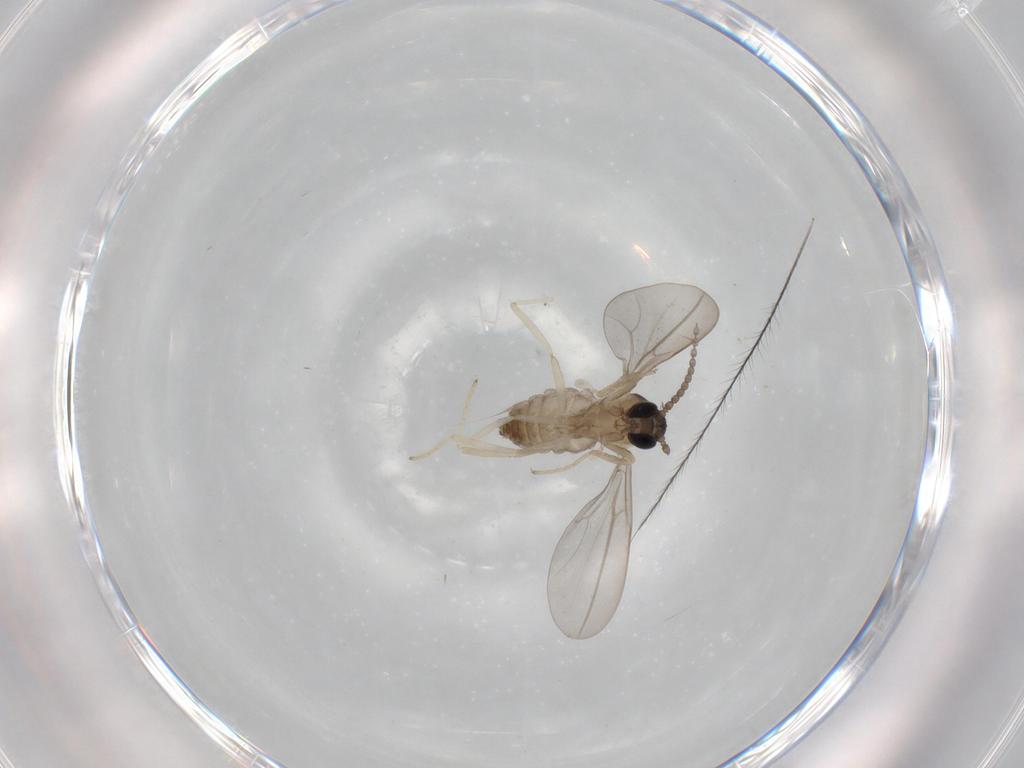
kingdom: Animalia
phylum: Arthropoda
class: Insecta
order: Diptera
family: Cecidomyiidae
